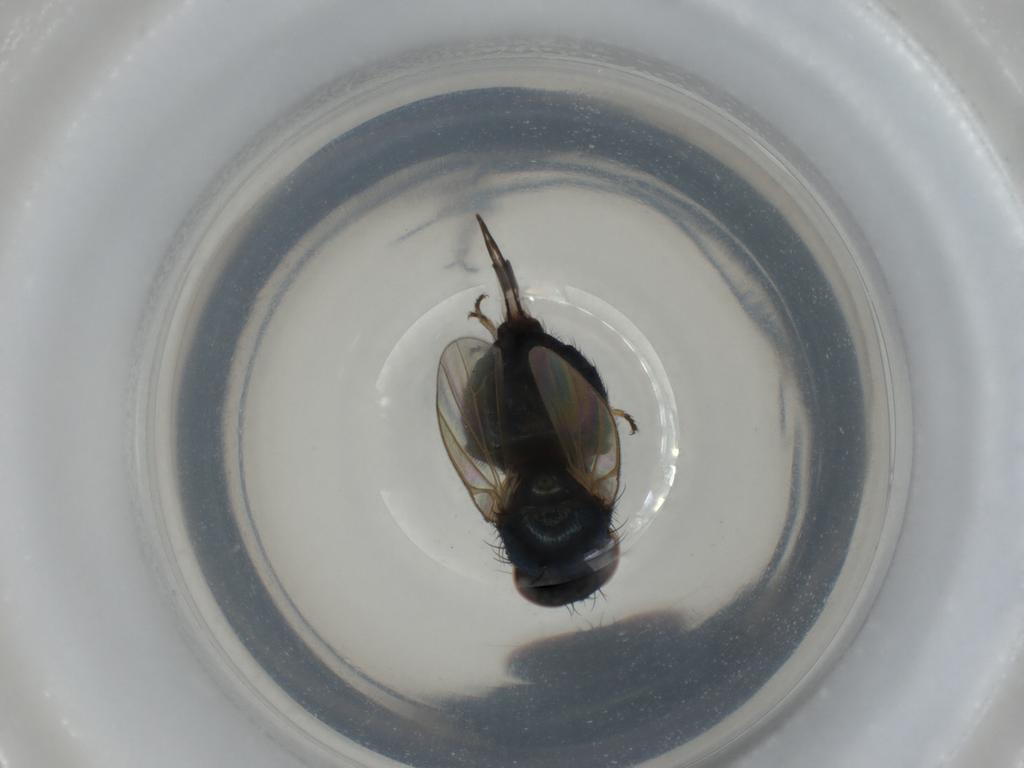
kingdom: Animalia
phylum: Arthropoda
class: Insecta
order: Diptera
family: Lonchaeidae
